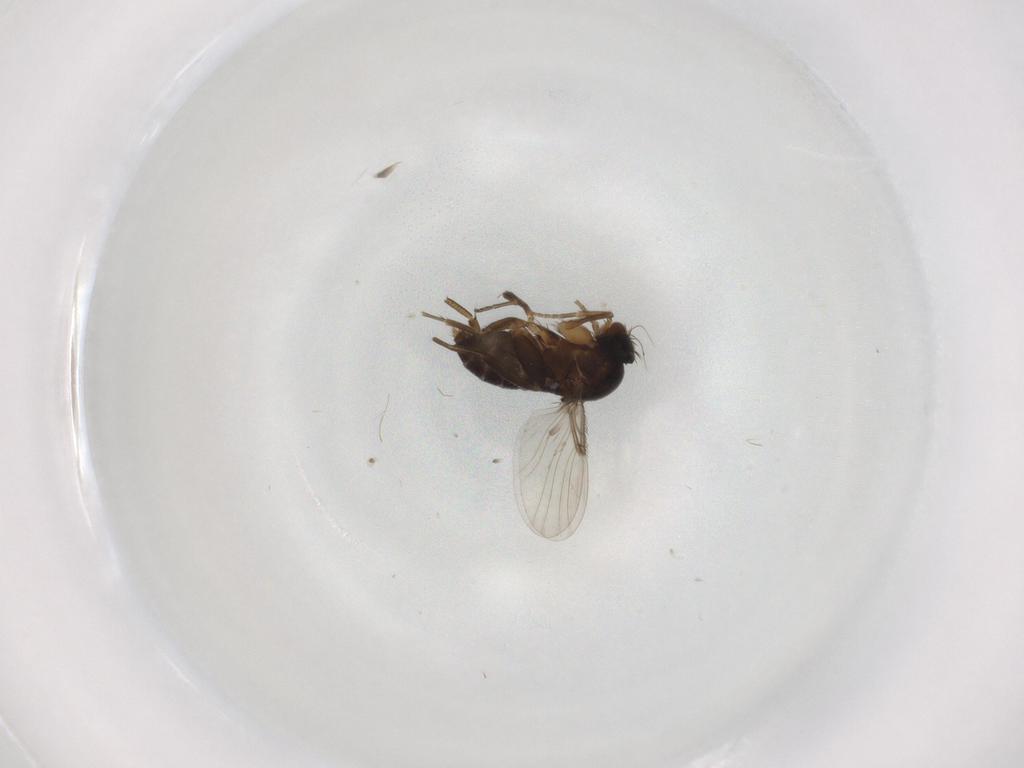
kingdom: Animalia
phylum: Arthropoda
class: Insecta
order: Diptera
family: Phoridae
